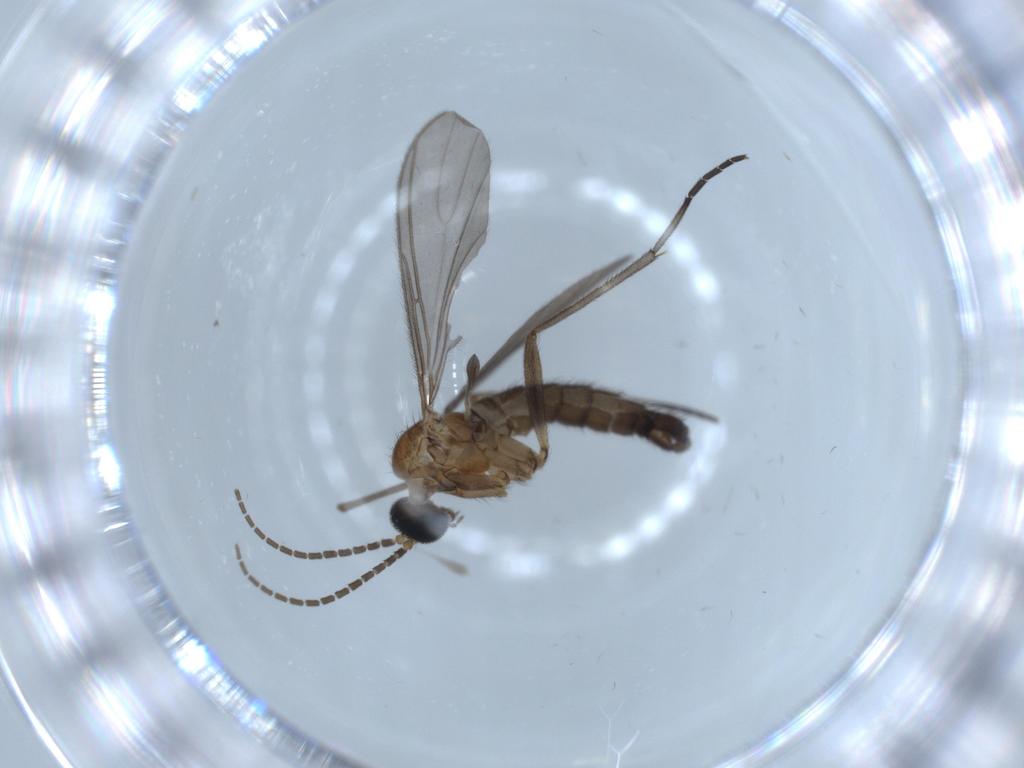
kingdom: Animalia
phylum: Arthropoda
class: Insecta
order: Diptera
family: Sciaridae
